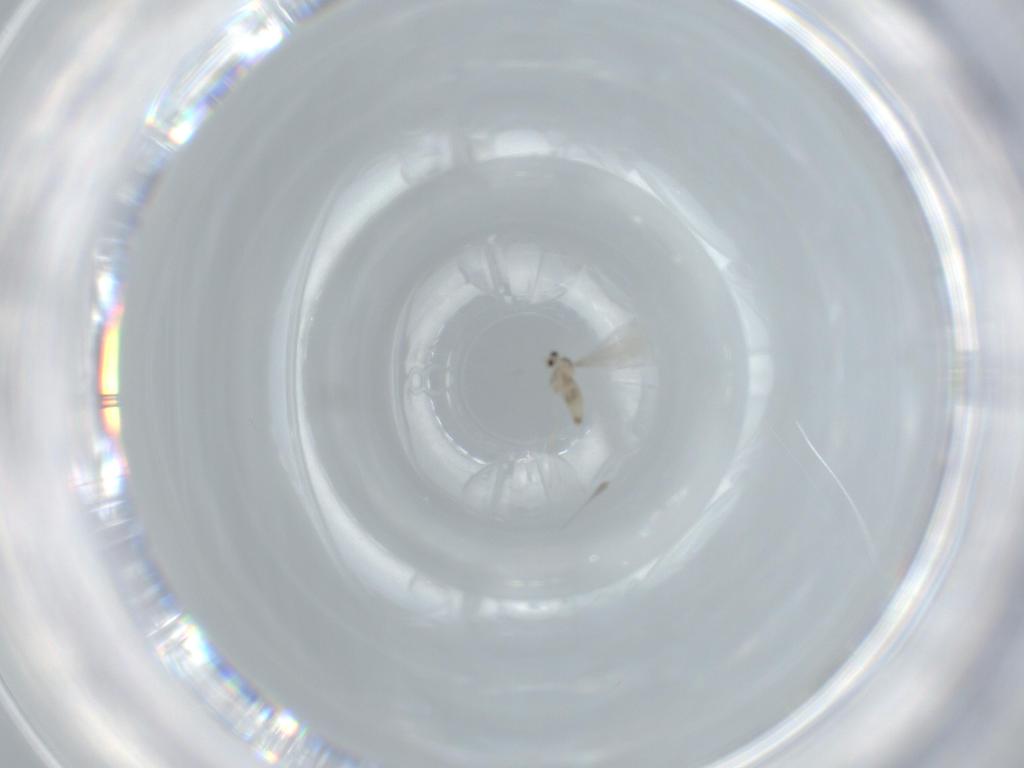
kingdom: Animalia
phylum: Arthropoda
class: Insecta
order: Diptera
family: Cecidomyiidae
